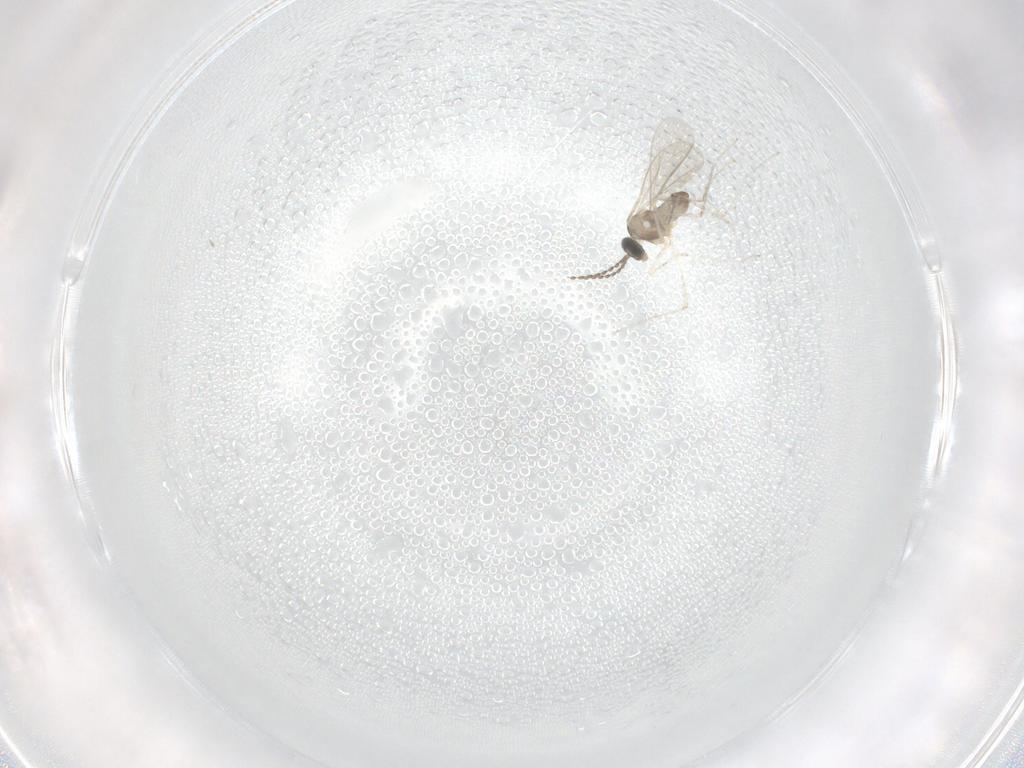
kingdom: Animalia
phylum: Arthropoda
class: Insecta
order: Diptera
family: Cecidomyiidae
